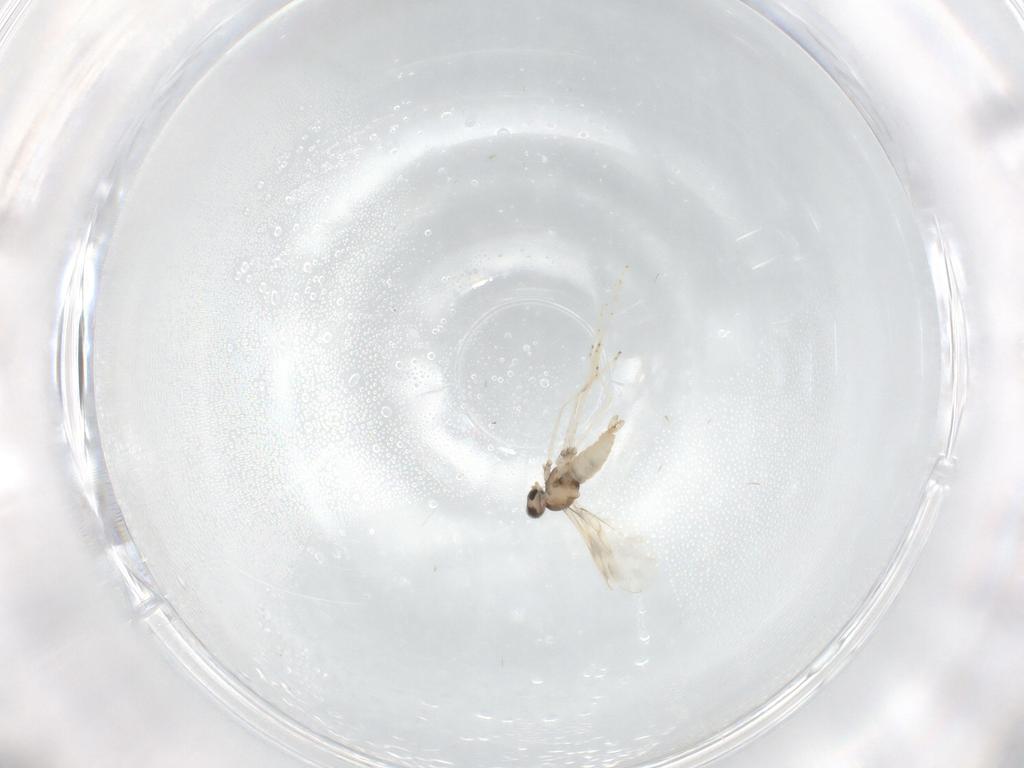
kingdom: Animalia
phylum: Arthropoda
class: Insecta
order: Diptera
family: Cecidomyiidae
